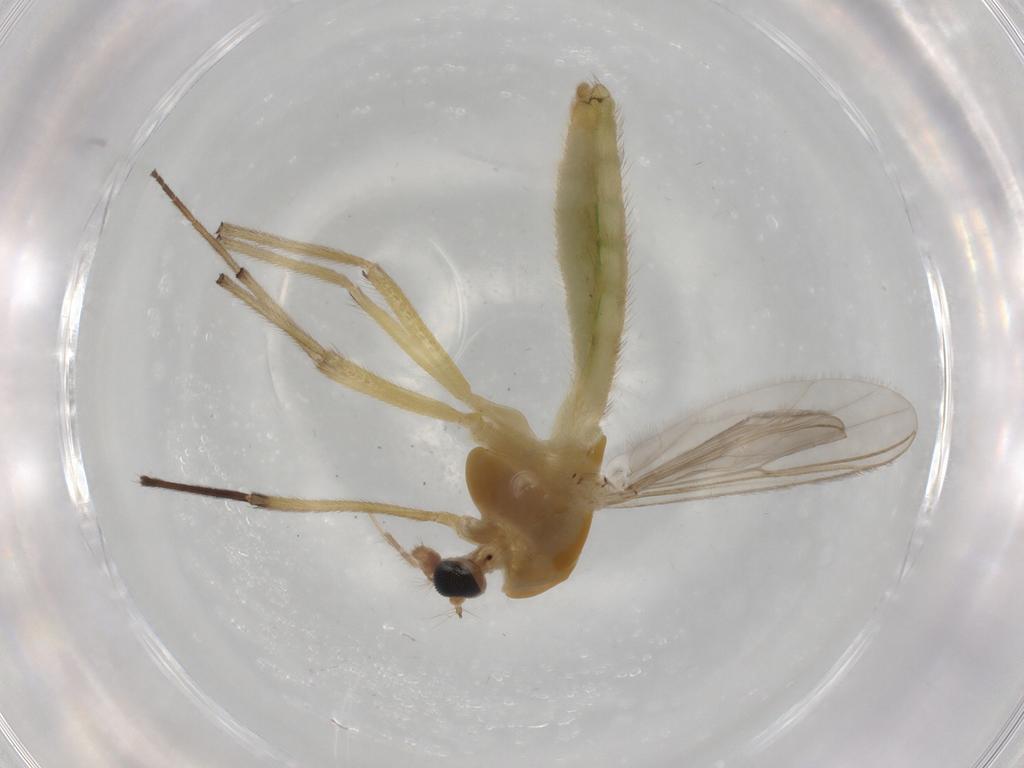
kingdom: Animalia
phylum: Arthropoda
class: Insecta
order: Diptera
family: Chironomidae
